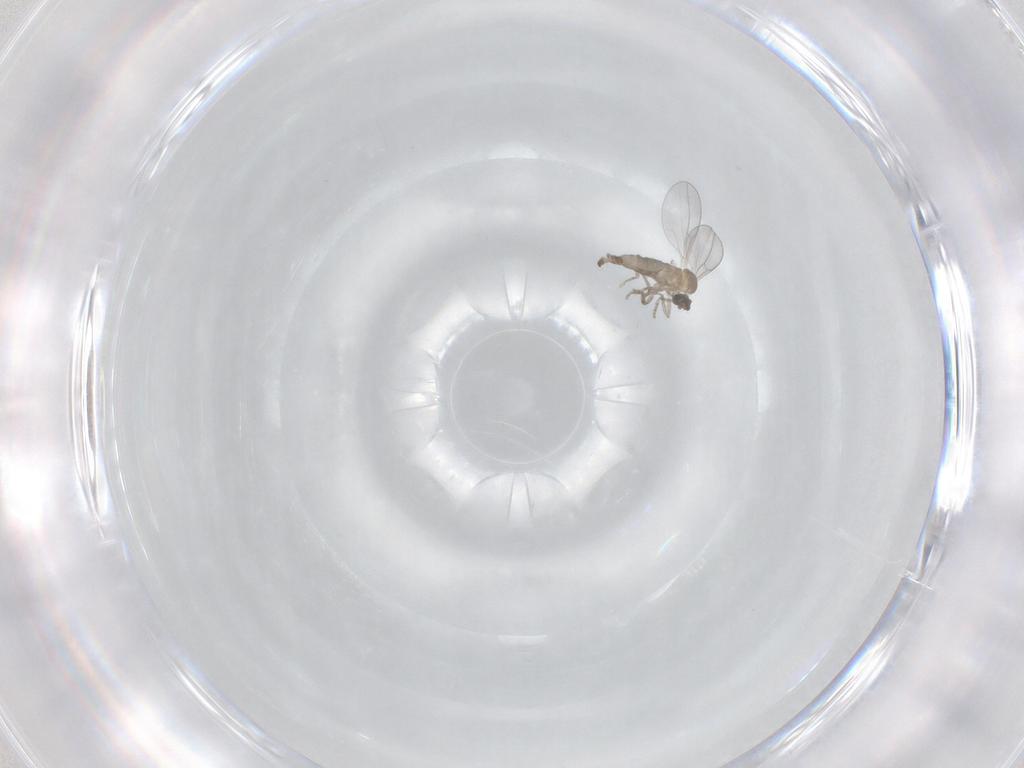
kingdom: Animalia
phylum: Arthropoda
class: Insecta
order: Diptera
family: Cecidomyiidae
